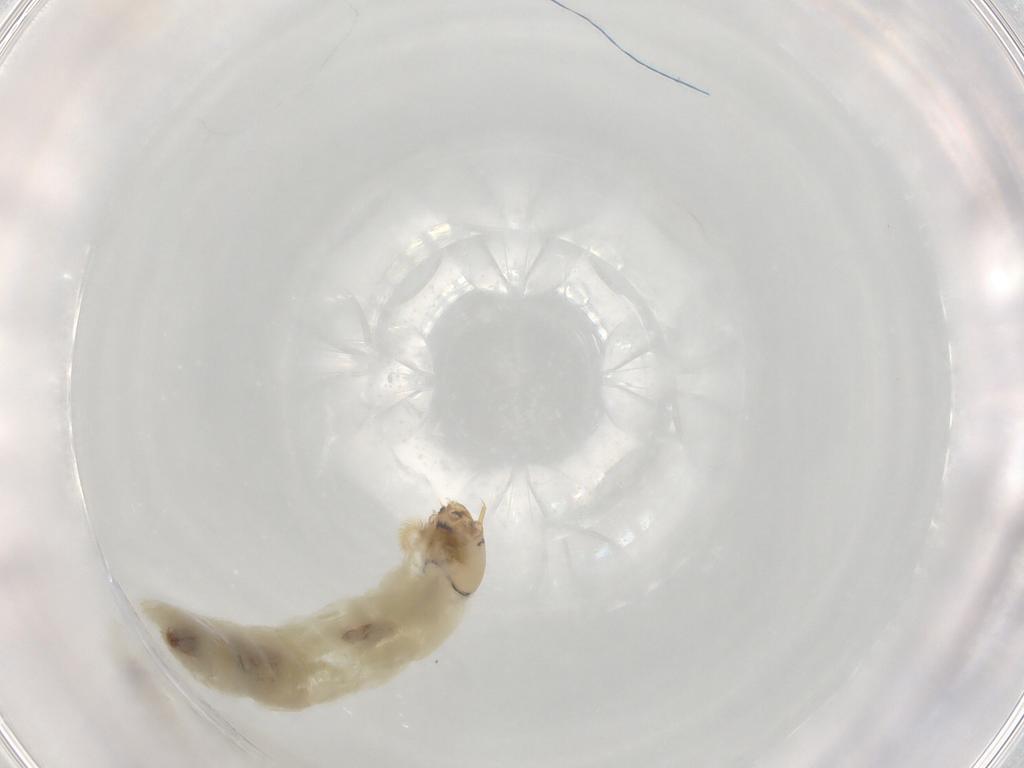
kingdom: Animalia
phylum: Arthropoda
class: Insecta
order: Diptera
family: Chironomidae
